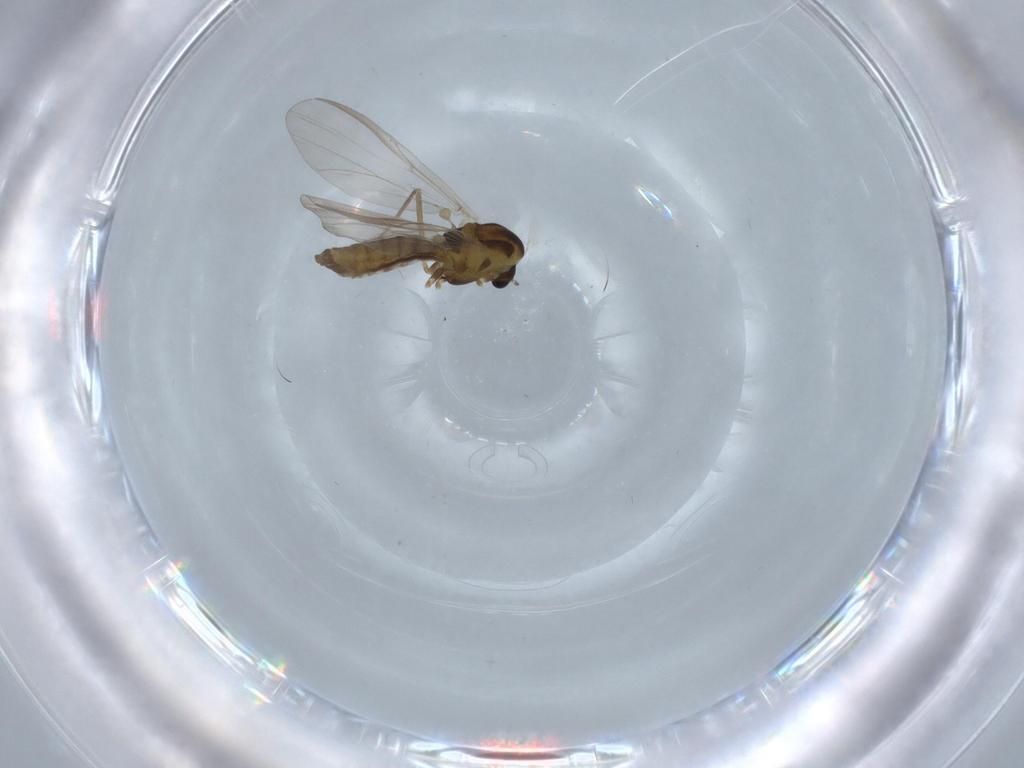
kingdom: Animalia
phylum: Arthropoda
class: Insecta
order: Diptera
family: Chironomidae
